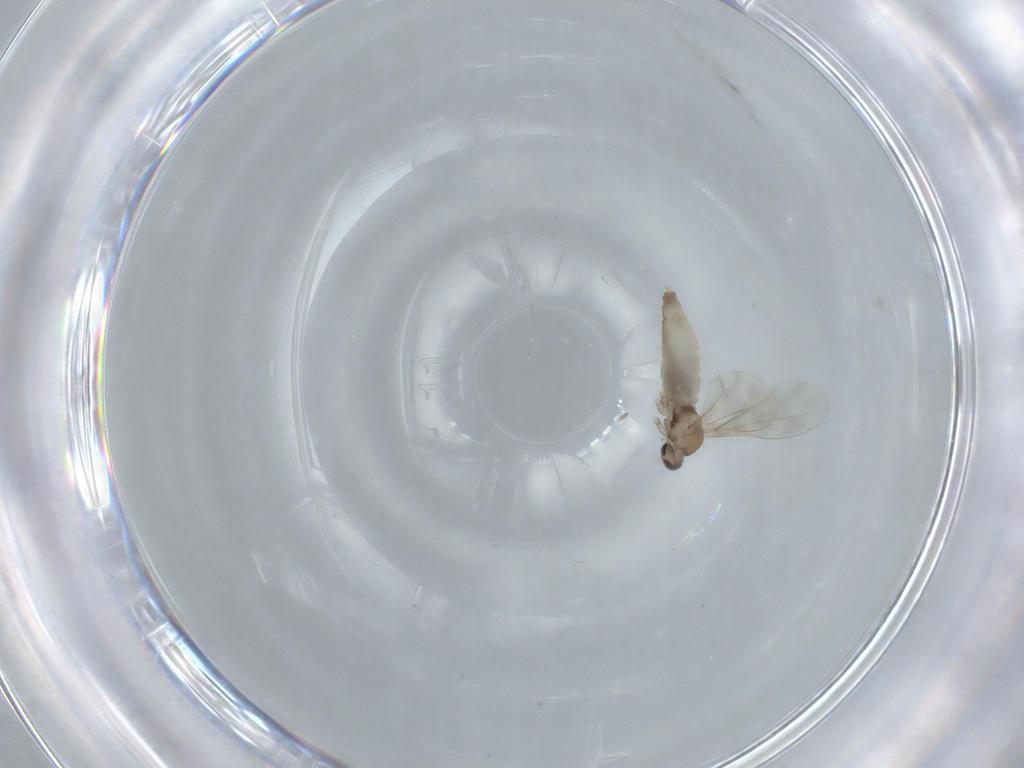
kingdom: Animalia
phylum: Arthropoda
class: Insecta
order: Diptera
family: Cecidomyiidae
